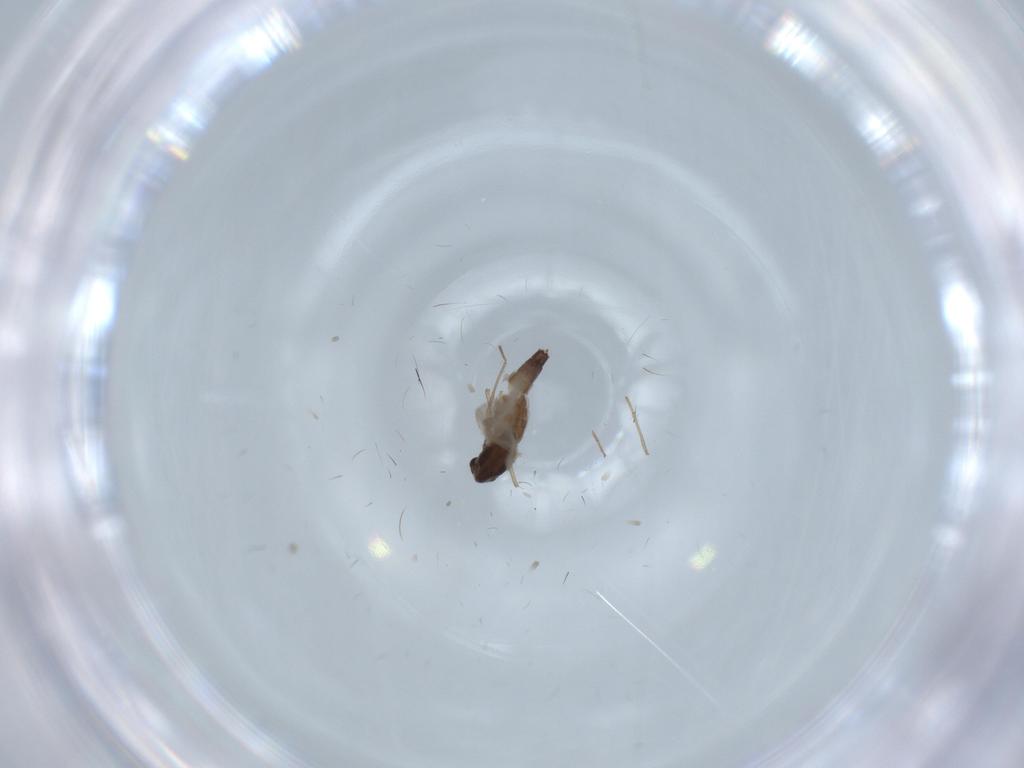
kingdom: Animalia
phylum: Arthropoda
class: Insecta
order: Diptera
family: Chironomidae
